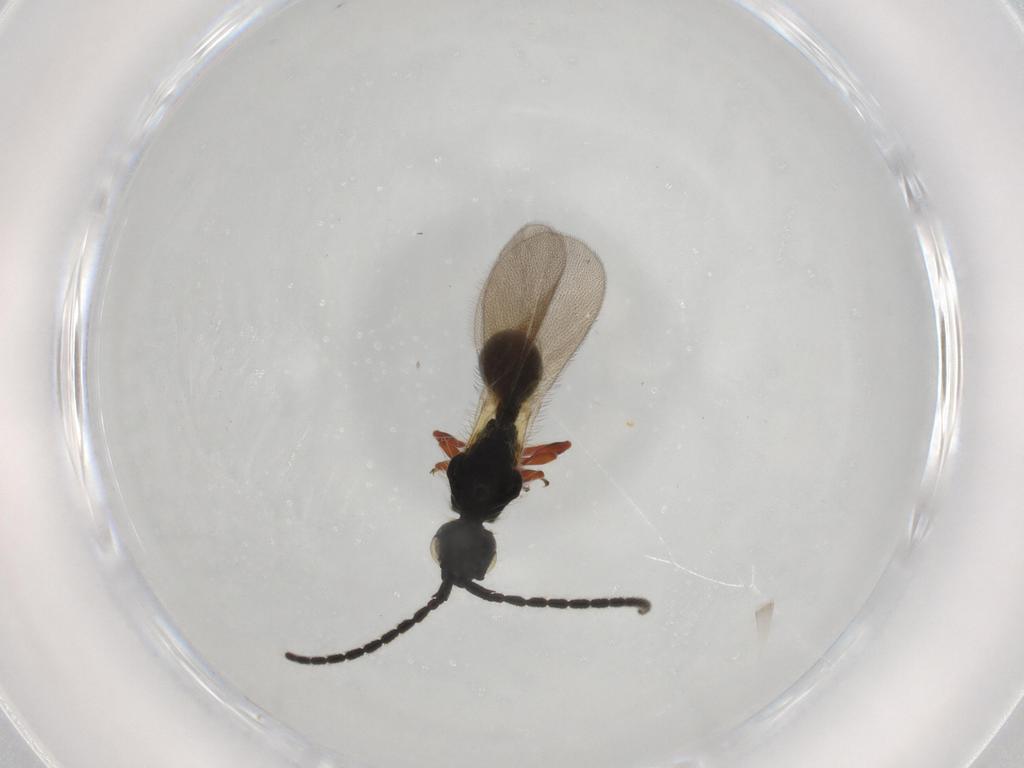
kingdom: Animalia
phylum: Arthropoda
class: Insecta
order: Hymenoptera
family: Diapriidae
